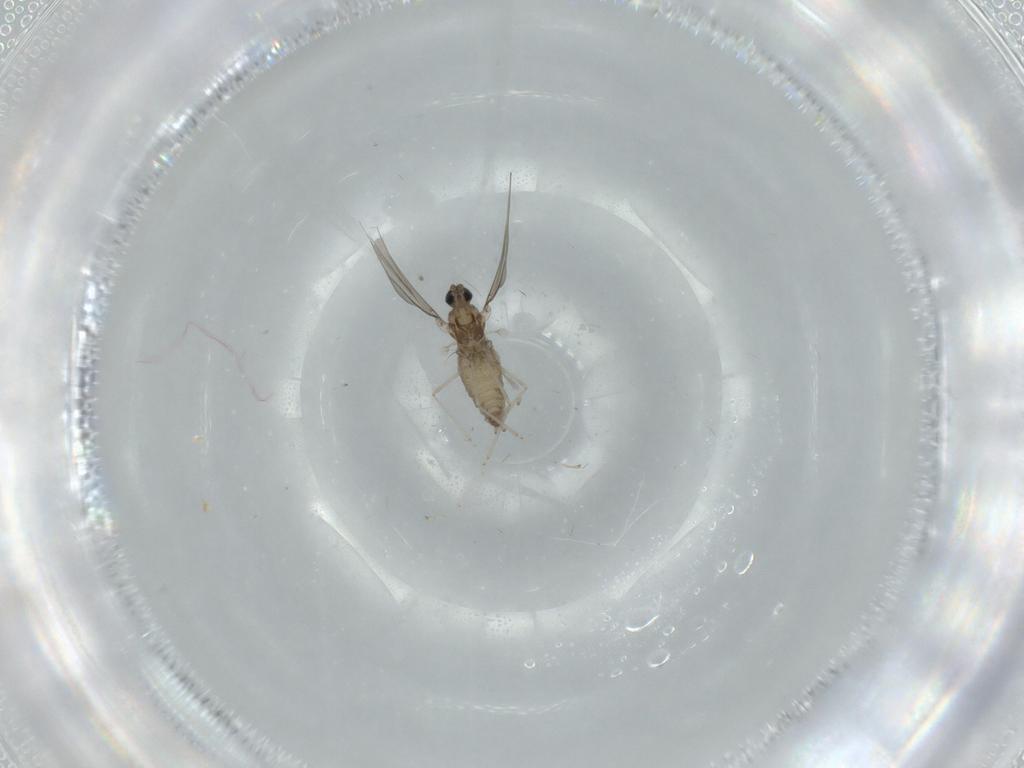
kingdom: Animalia
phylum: Arthropoda
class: Insecta
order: Diptera
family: Cecidomyiidae
